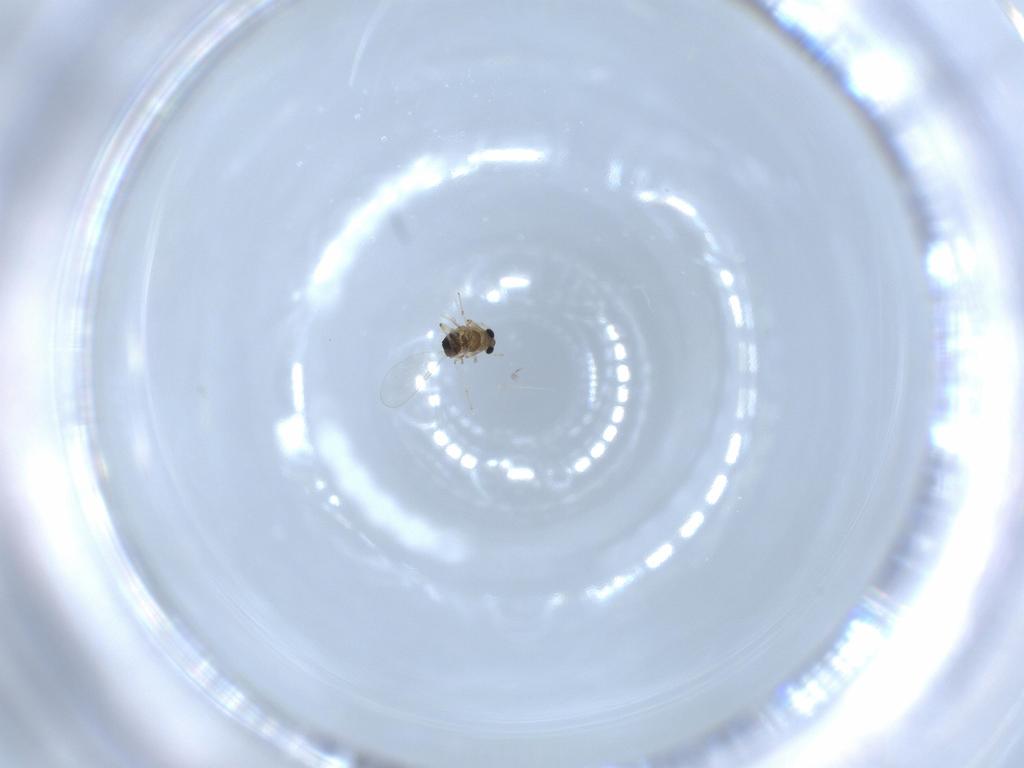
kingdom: Animalia
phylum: Arthropoda
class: Insecta
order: Diptera
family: Chironomidae
